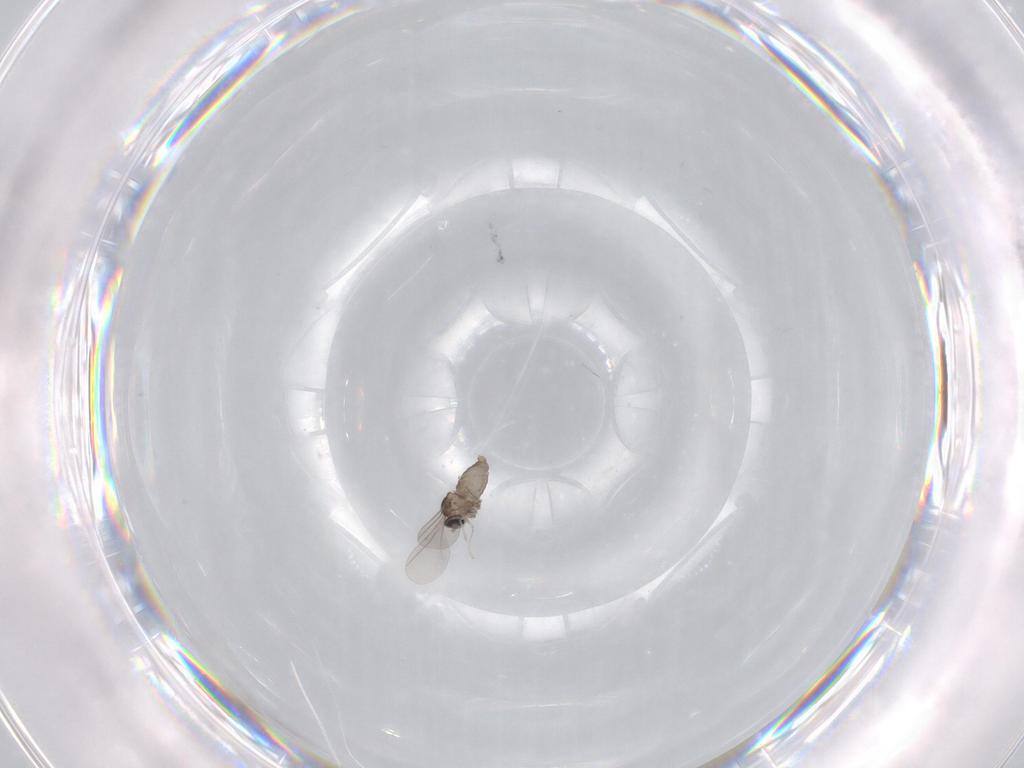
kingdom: Animalia
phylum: Arthropoda
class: Insecta
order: Diptera
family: Cecidomyiidae
